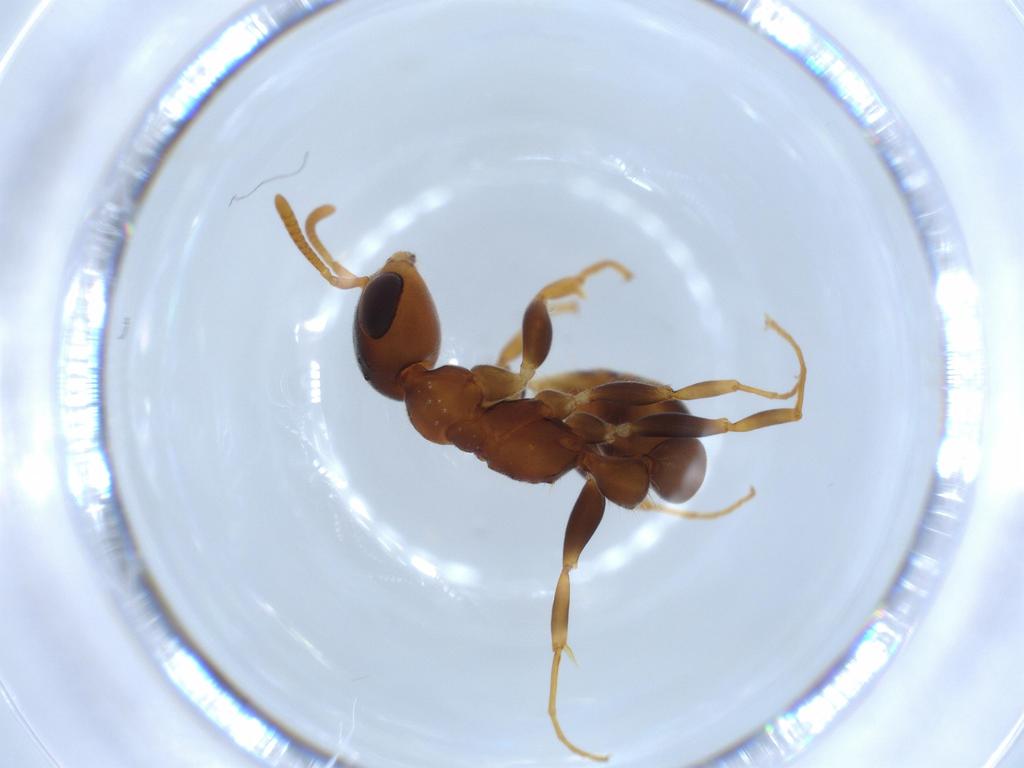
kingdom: Animalia
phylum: Arthropoda
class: Insecta
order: Hymenoptera
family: Formicidae
